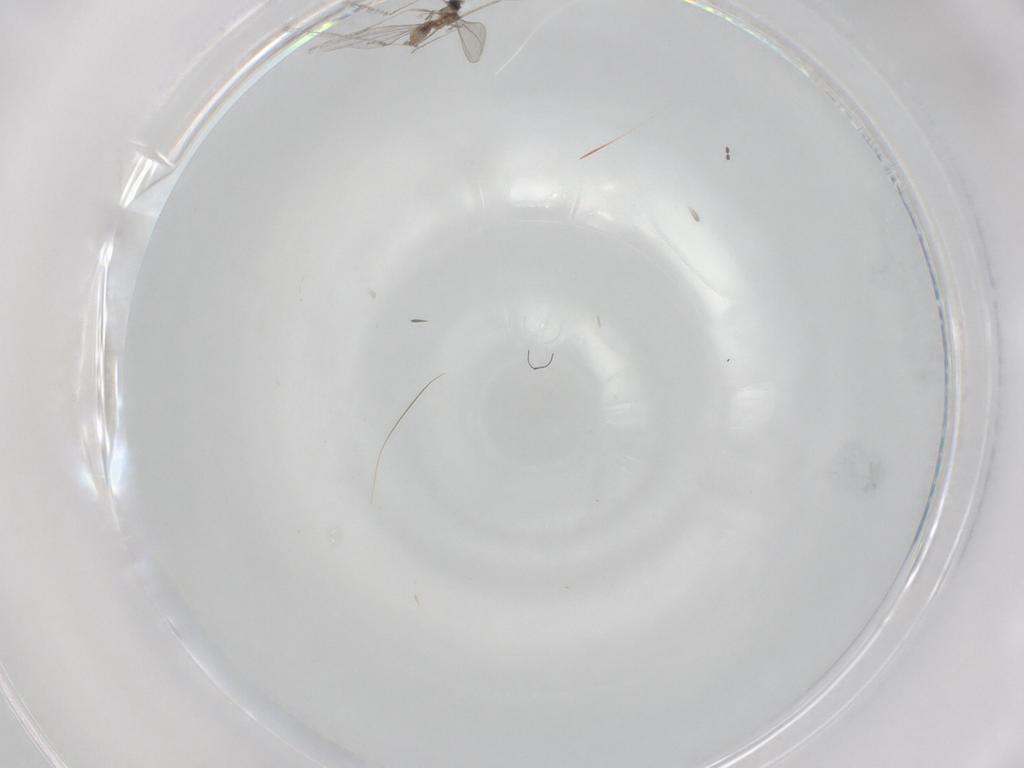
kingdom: Animalia
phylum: Arthropoda
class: Insecta
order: Diptera
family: Cecidomyiidae
